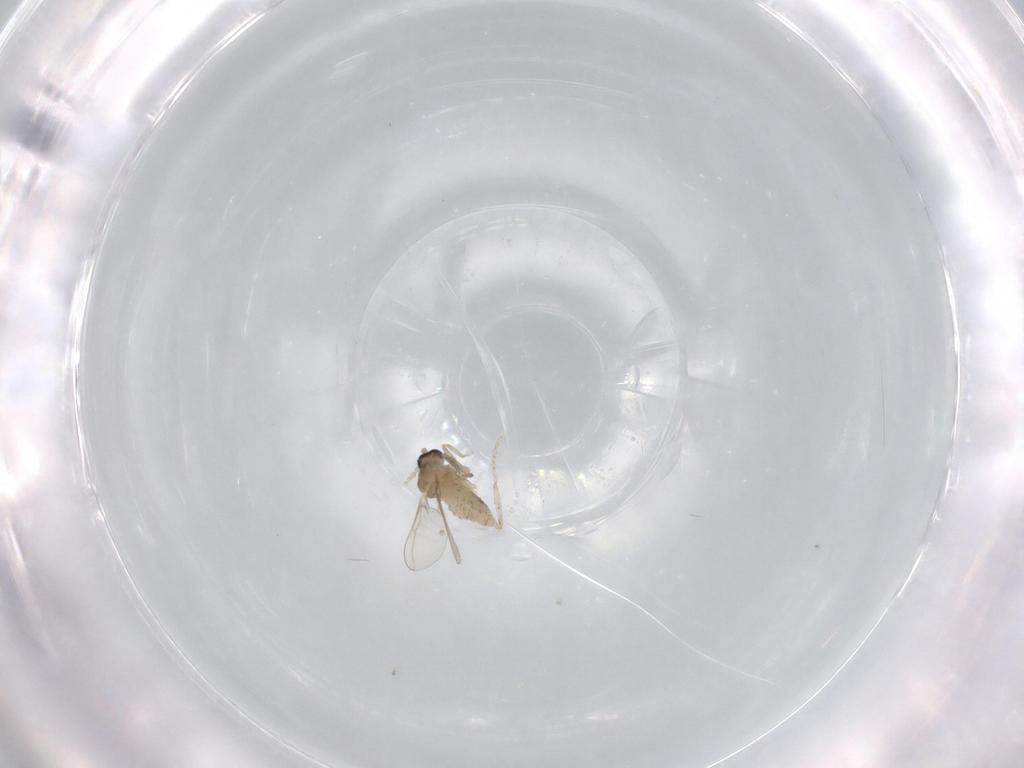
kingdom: Animalia
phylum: Arthropoda
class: Insecta
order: Diptera
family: Cecidomyiidae
